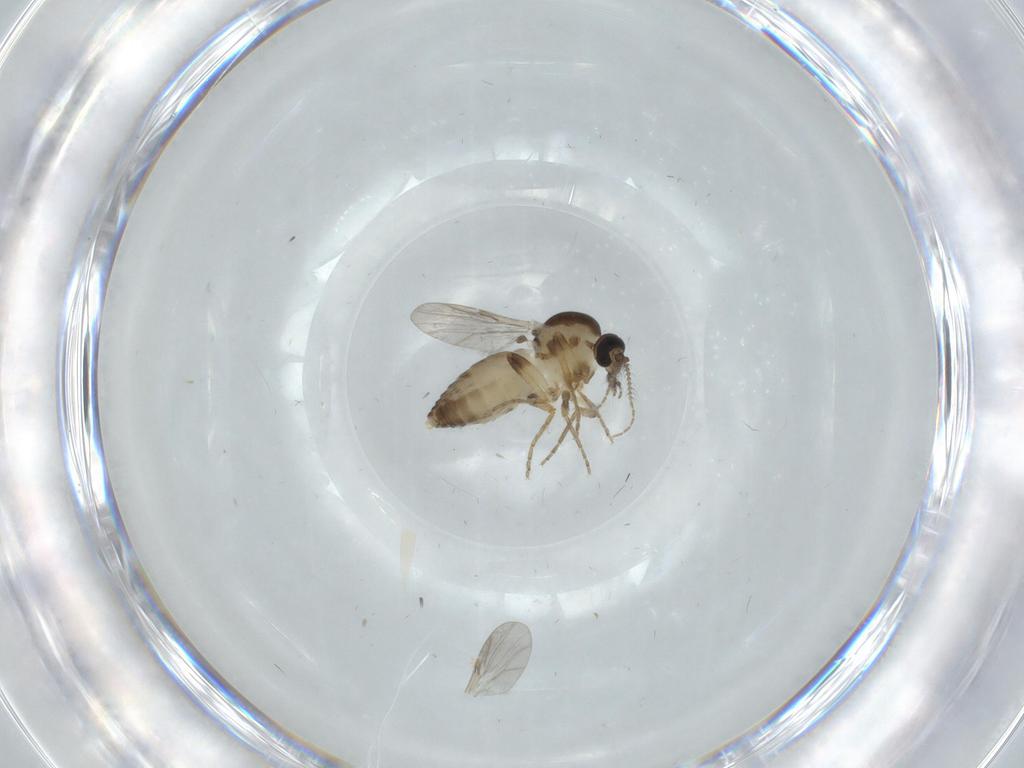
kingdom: Animalia
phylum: Arthropoda
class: Insecta
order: Diptera
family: Ceratopogonidae
